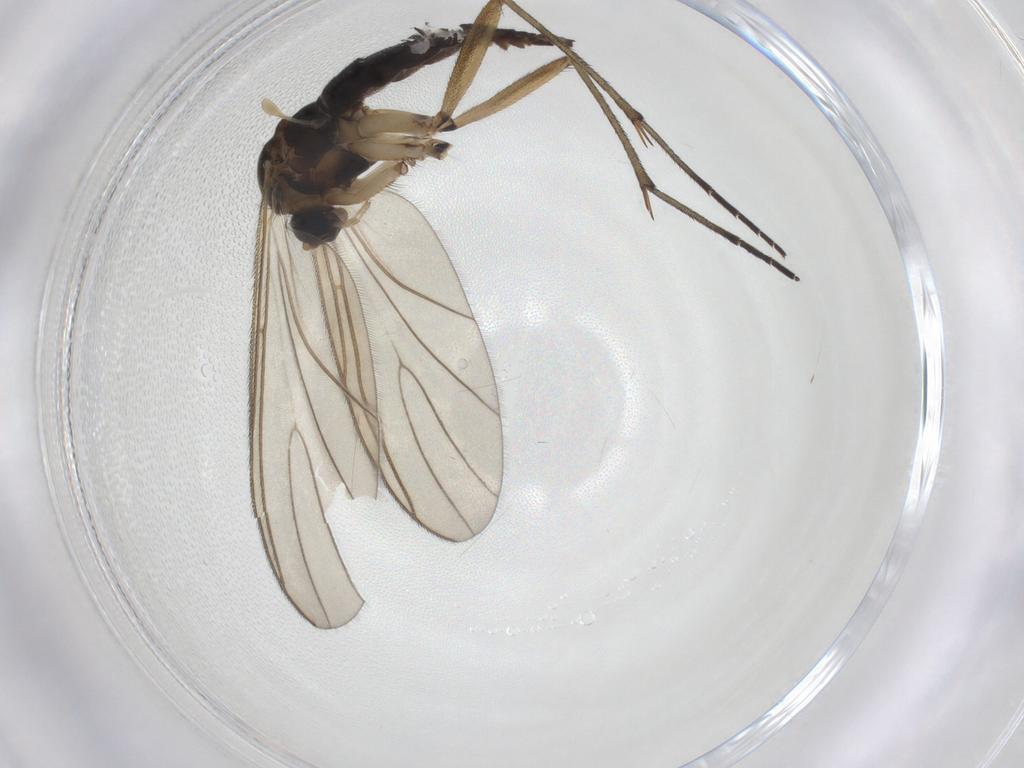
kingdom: Animalia
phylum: Arthropoda
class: Insecta
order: Diptera
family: Sciaridae
